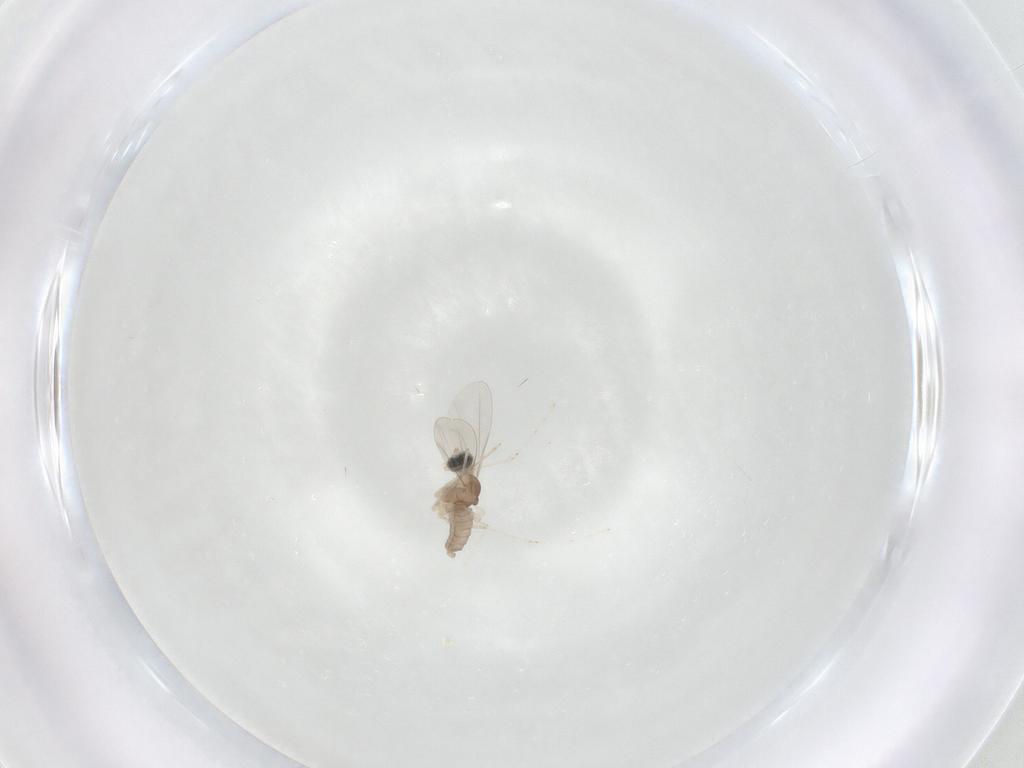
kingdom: Animalia
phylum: Arthropoda
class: Insecta
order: Diptera
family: Cecidomyiidae
